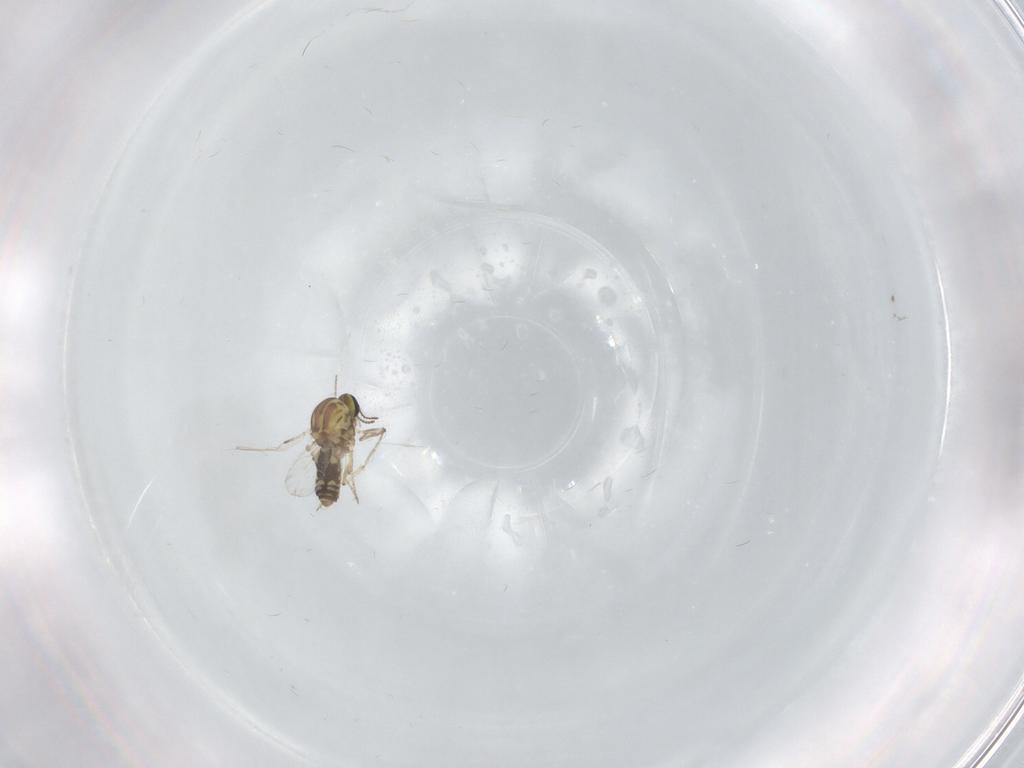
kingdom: Animalia
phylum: Arthropoda
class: Insecta
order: Diptera
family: Ceratopogonidae
